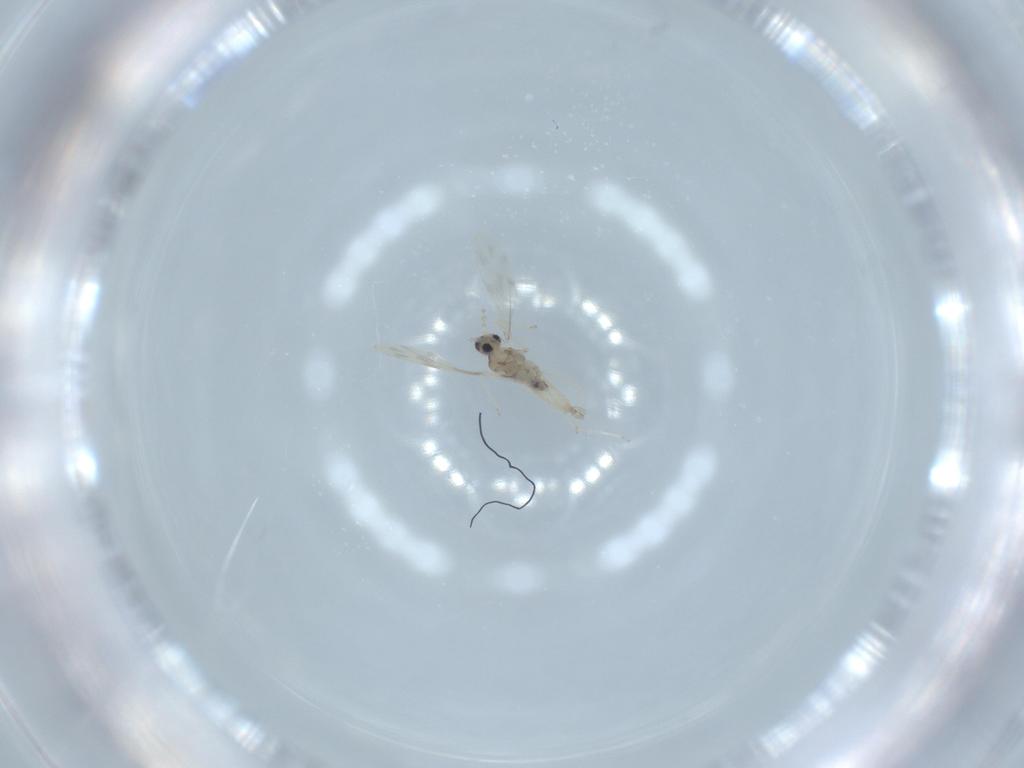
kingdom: Animalia
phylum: Arthropoda
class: Insecta
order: Diptera
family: Cecidomyiidae
